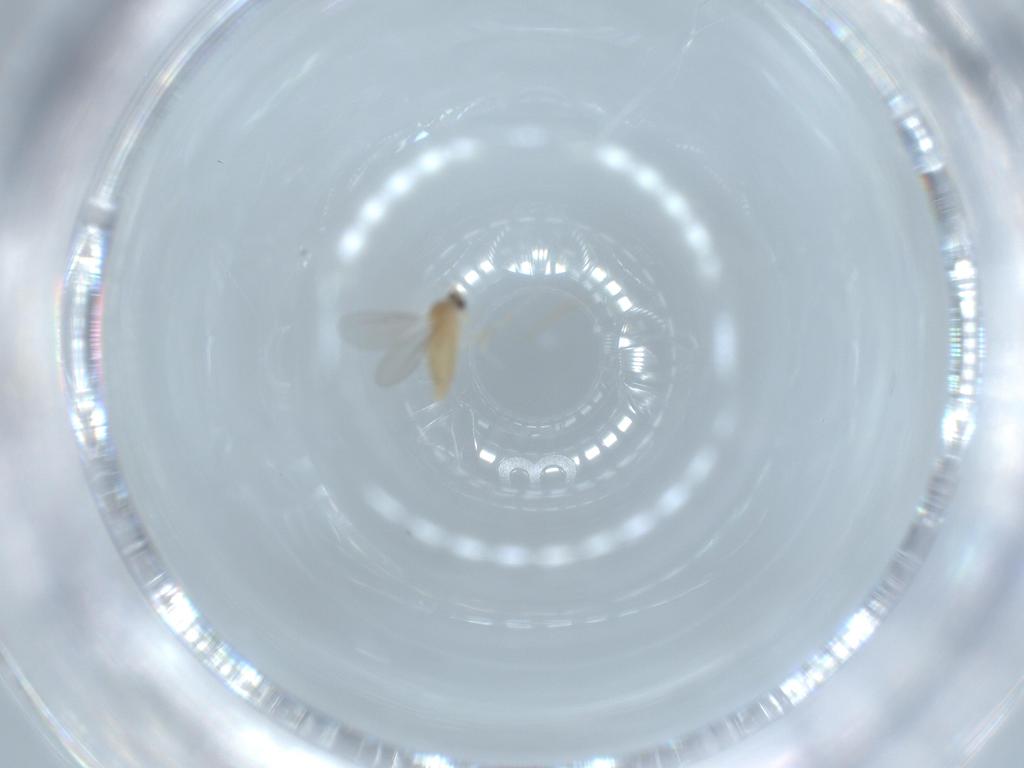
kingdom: Animalia
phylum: Arthropoda
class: Insecta
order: Diptera
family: Cecidomyiidae
